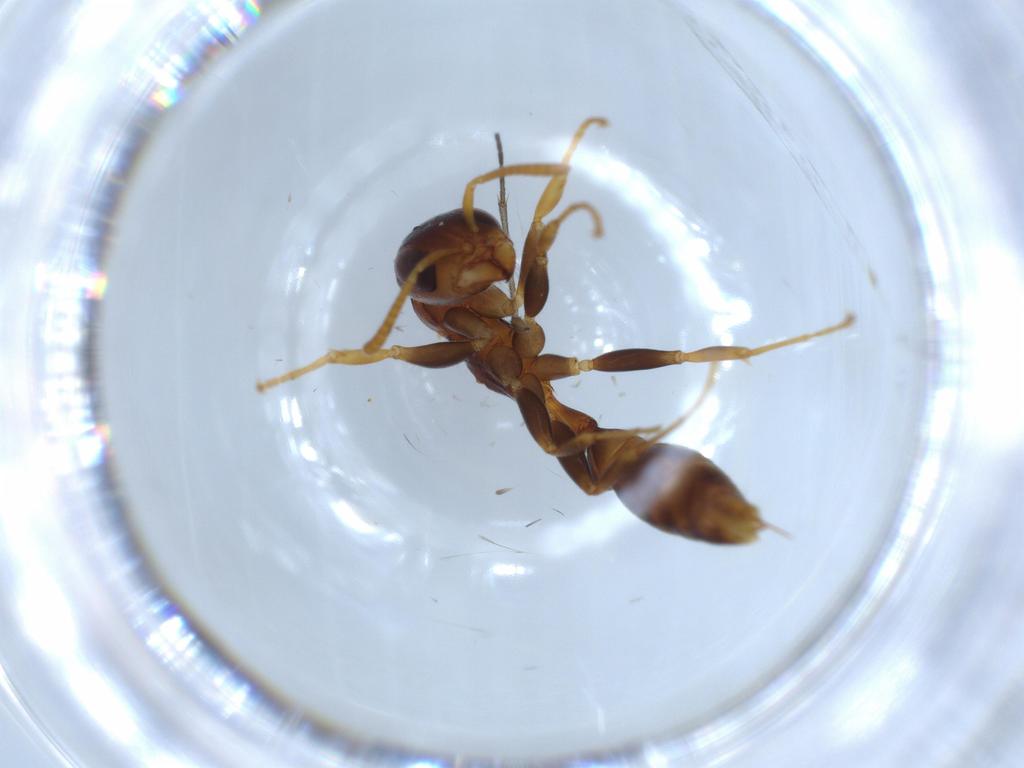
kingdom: Animalia
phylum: Arthropoda
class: Insecta
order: Hymenoptera
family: Formicidae
